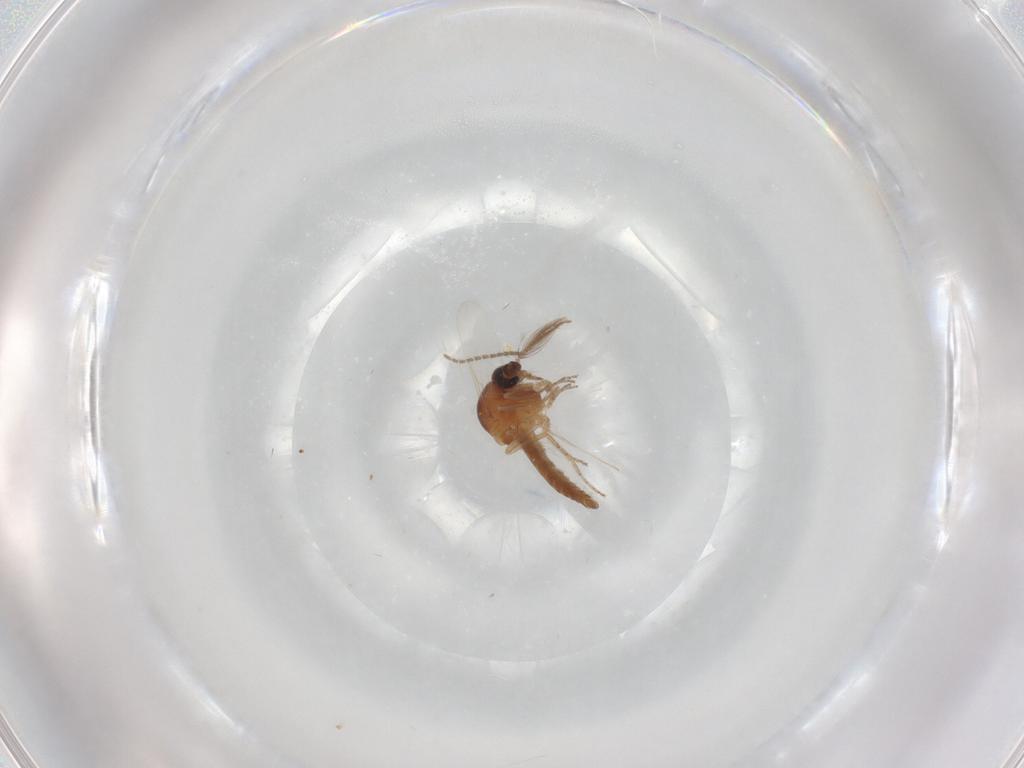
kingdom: Animalia
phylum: Arthropoda
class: Insecta
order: Diptera
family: Ceratopogonidae
